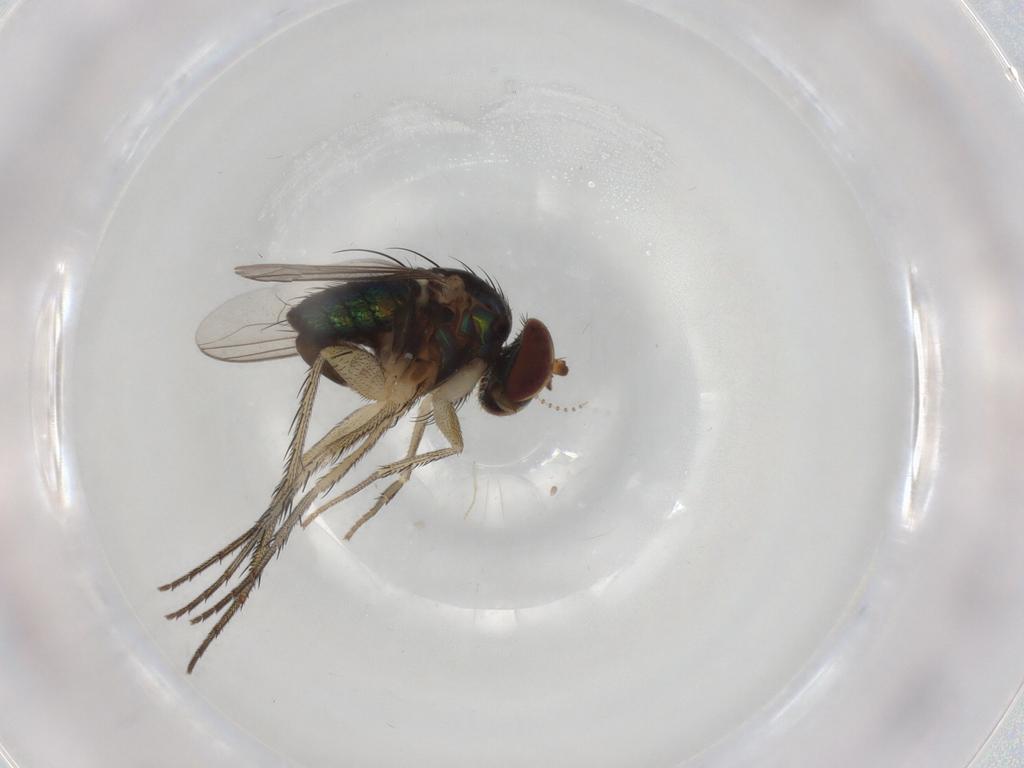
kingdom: Animalia
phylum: Arthropoda
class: Insecta
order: Diptera
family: Dolichopodidae
